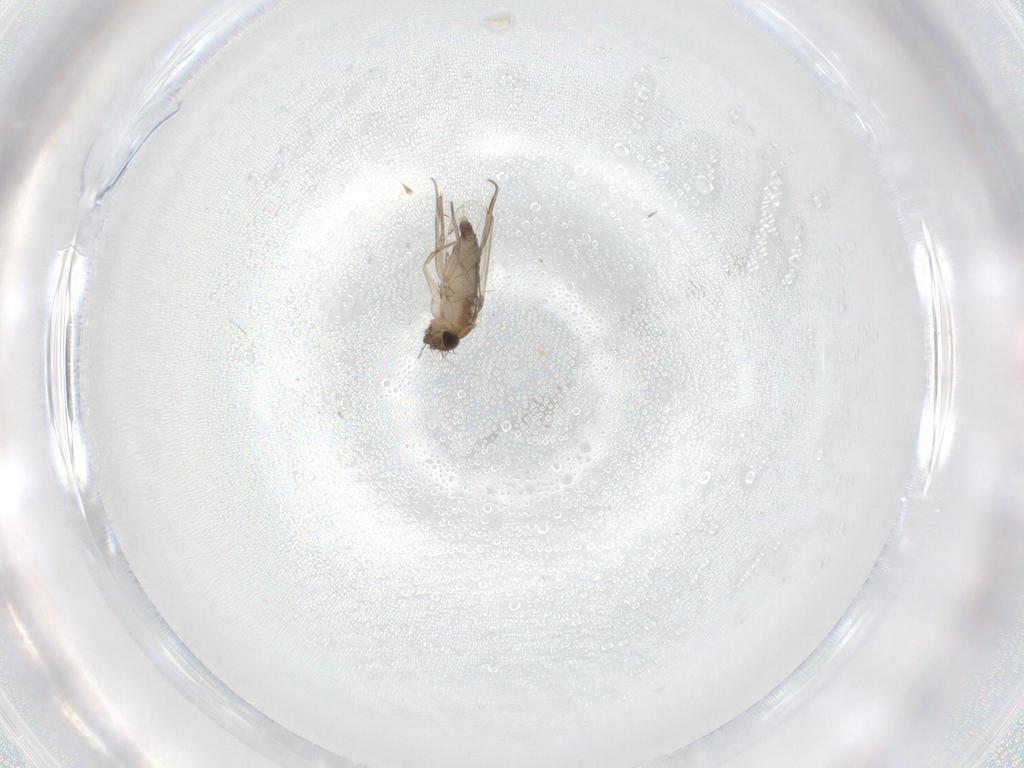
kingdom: Animalia
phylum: Arthropoda
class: Insecta
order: Diptera
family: Phoridae
